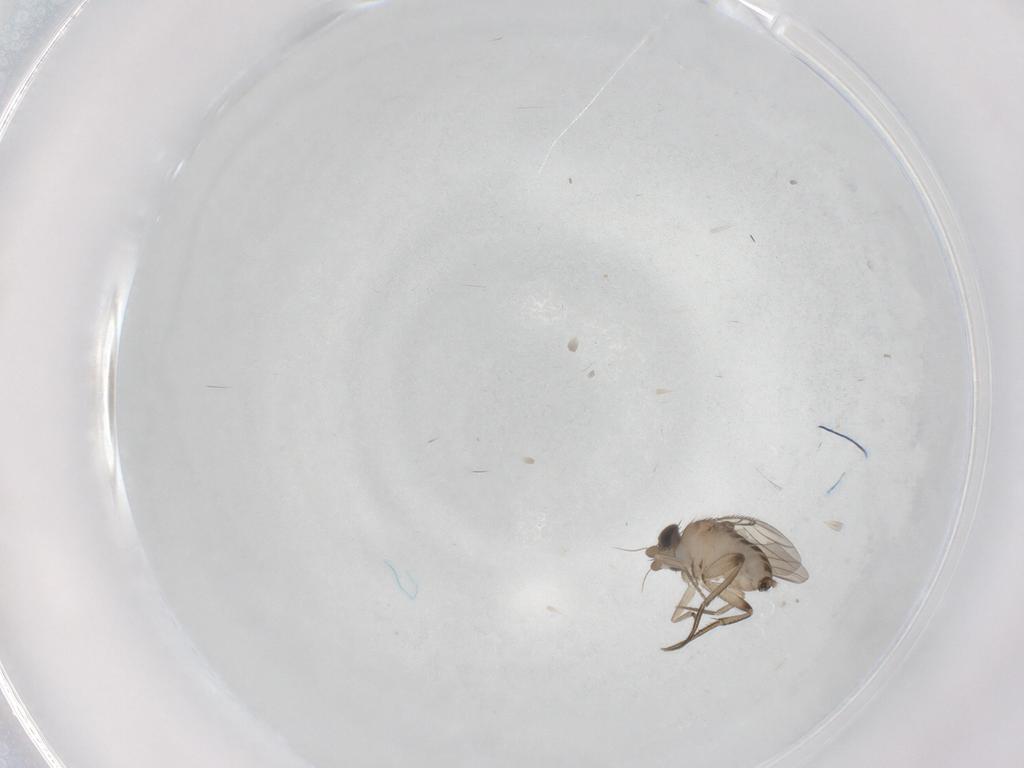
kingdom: Animalia
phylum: Arthropoda
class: Insecta
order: Diptera
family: Phoridae
